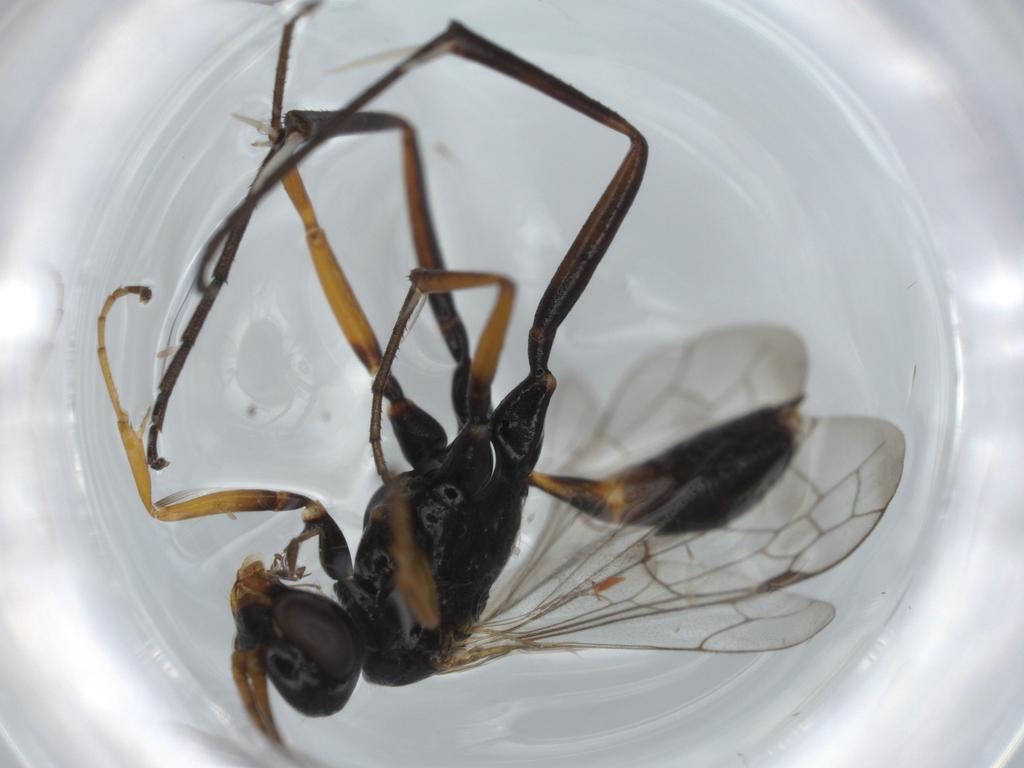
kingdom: Animalia
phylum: Arthropoda
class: Insecta
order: Hymenoptera
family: Pompilidae
